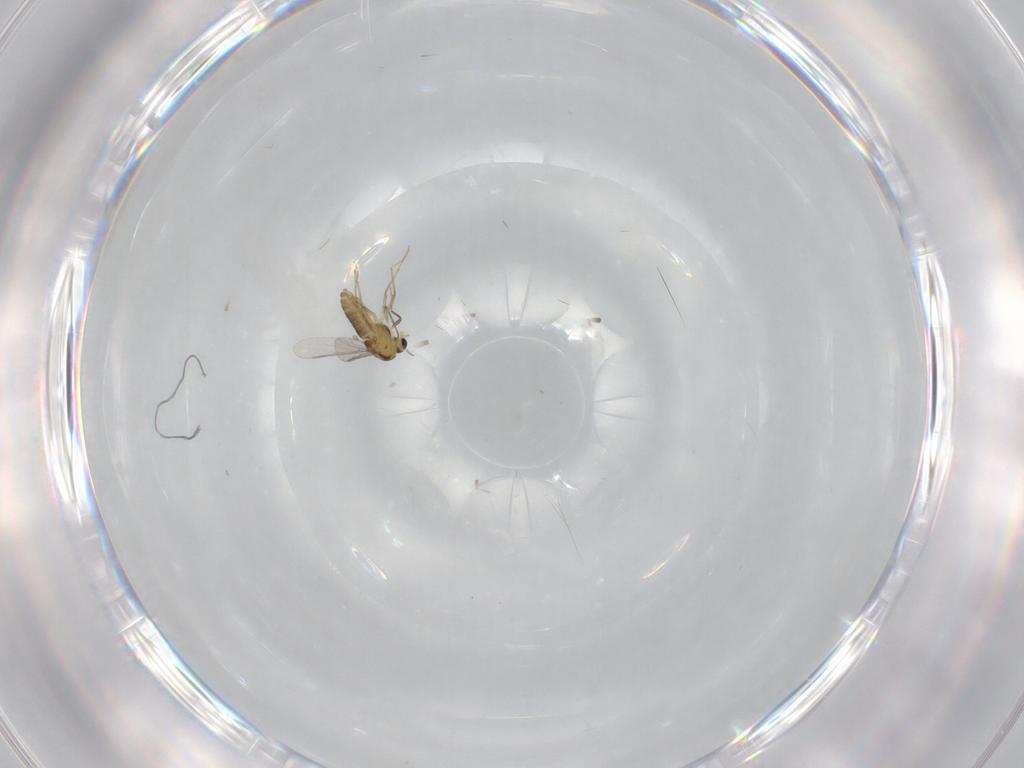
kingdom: Animalia
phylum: Arthropoda
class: Insecta
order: Diptera
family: Chironomidae
